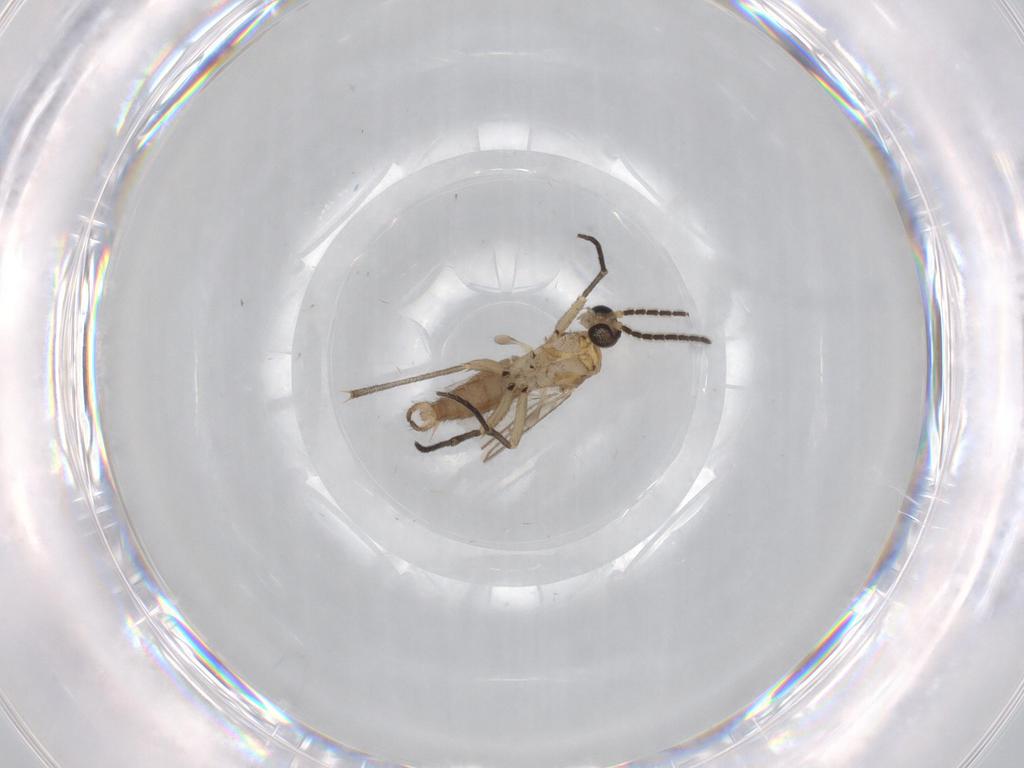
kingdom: Animalia
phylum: Arthropoda
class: Insecta
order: Diptera
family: Sciaridae
